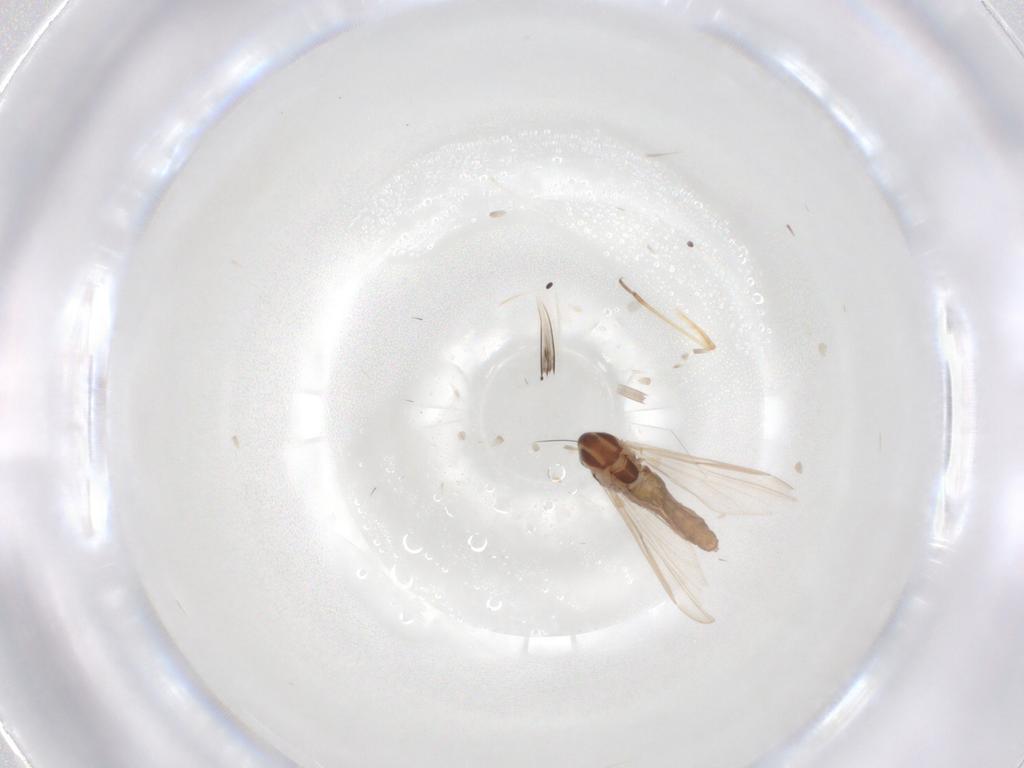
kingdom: Animalia
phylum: Arthropoda
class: Insecta
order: Diptera
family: Chironomidae
